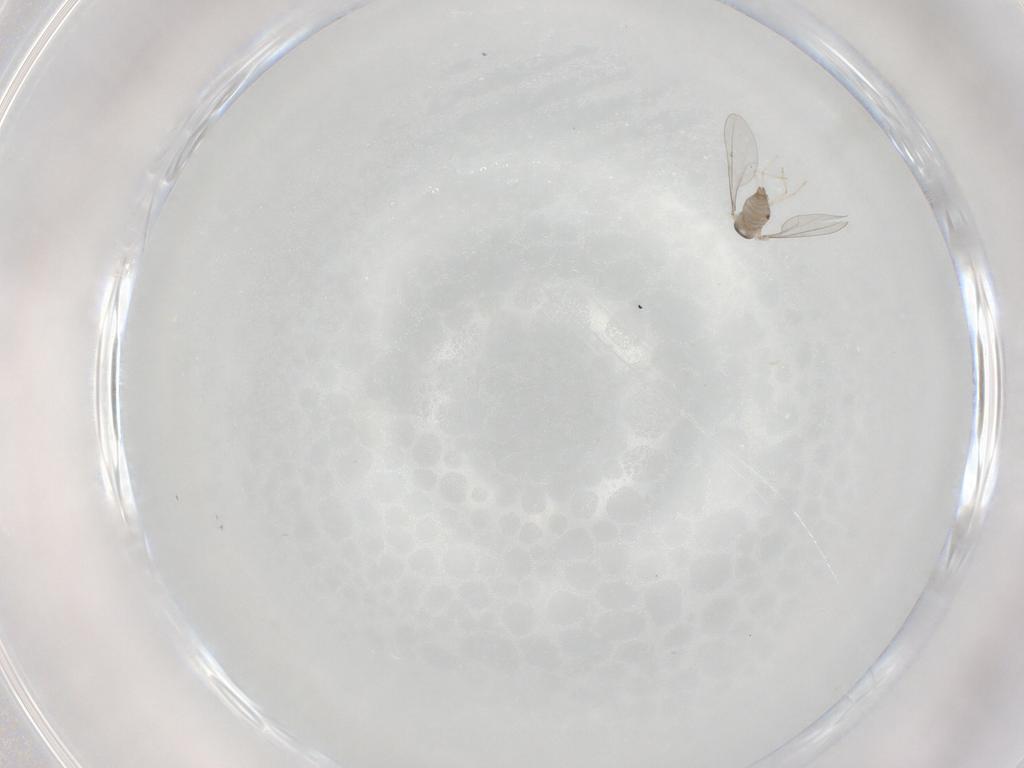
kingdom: Animalia
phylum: Arthropoda
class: Insecta
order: Diptera
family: Phoridae
